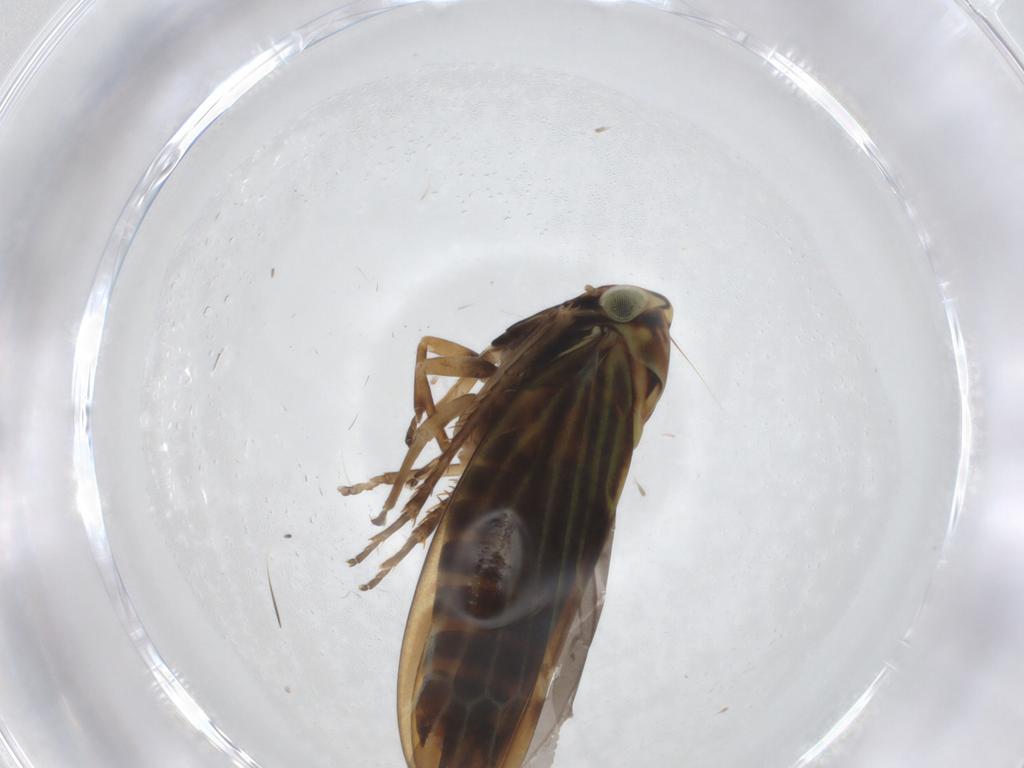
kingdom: Animalia
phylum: Arthropoda
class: Insecta
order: Hemiptera
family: Cicadellidae
